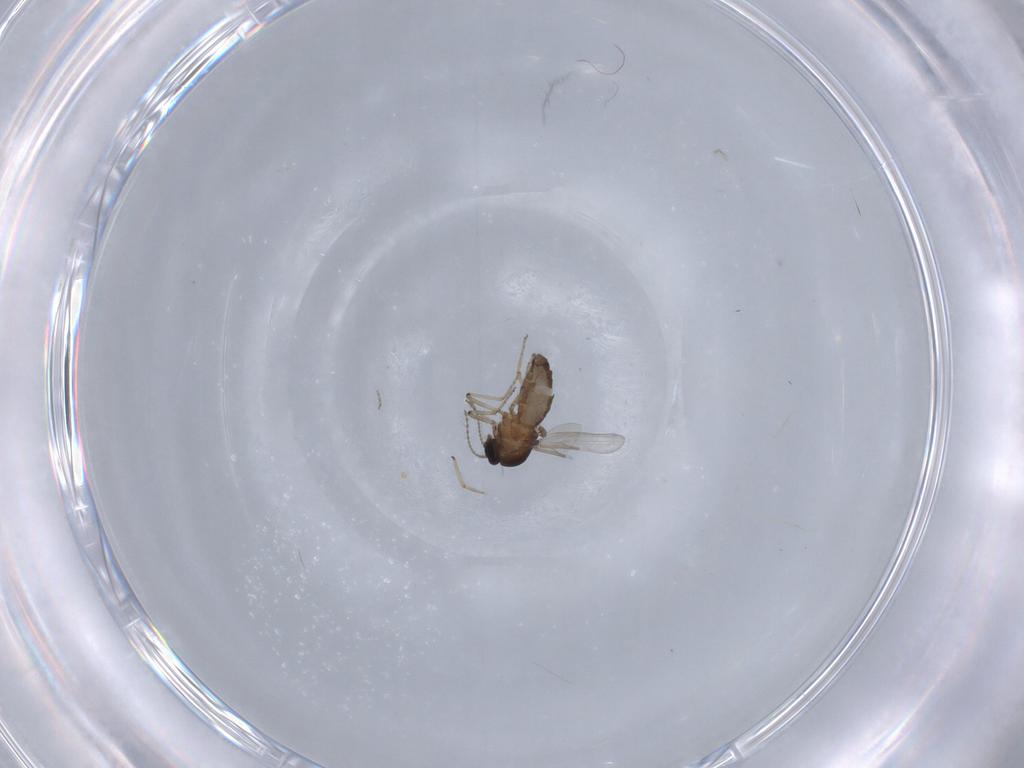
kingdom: Animalia
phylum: Arthropoda
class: Insecta
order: Diptera
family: Ceratopogonidae
